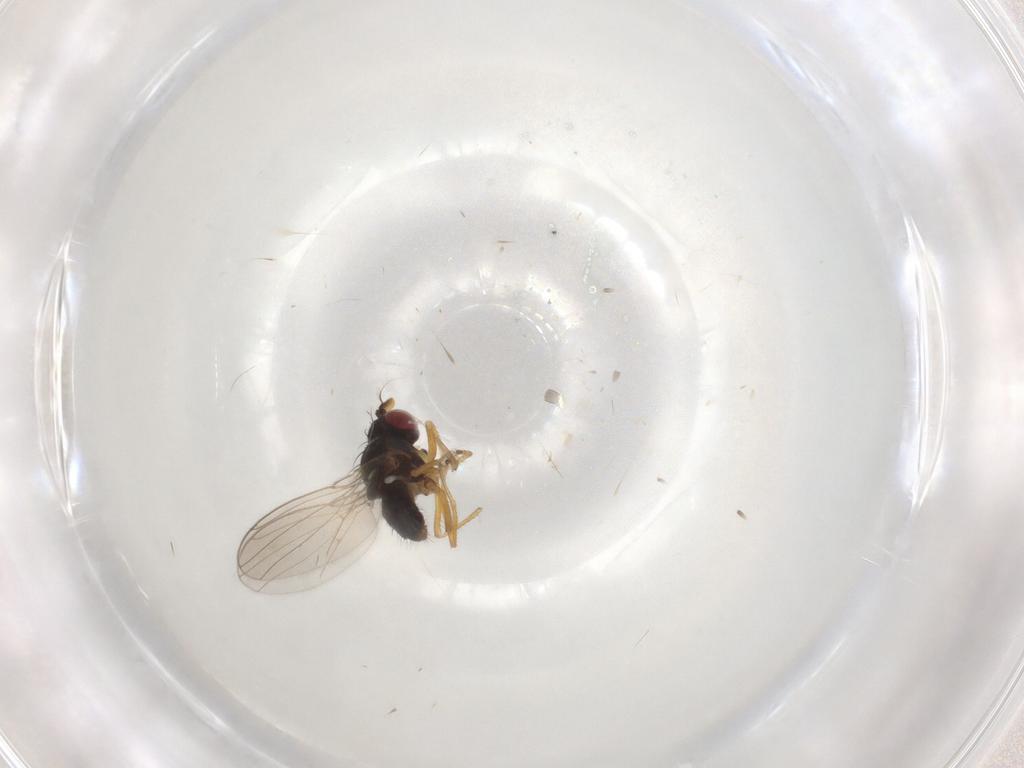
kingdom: Animalia
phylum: Arthropoda
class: Insecta
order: Diptera
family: Ephydridae
